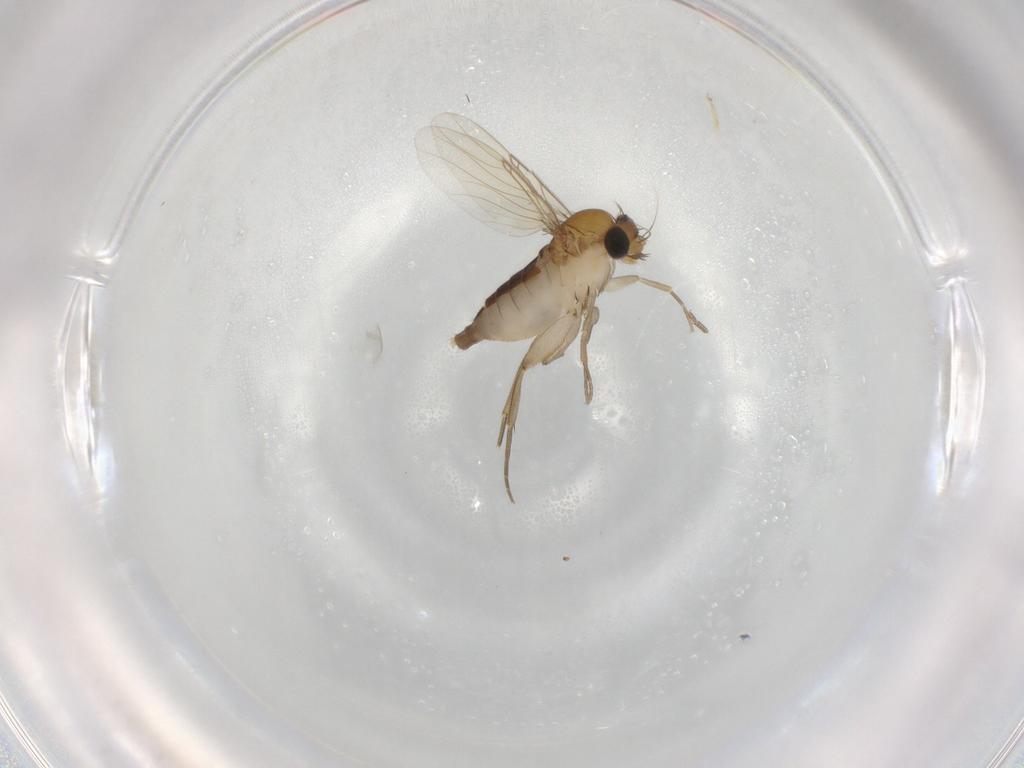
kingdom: Animalia
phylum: Arthropoda
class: Insecta
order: Diptera
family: Phoridae
